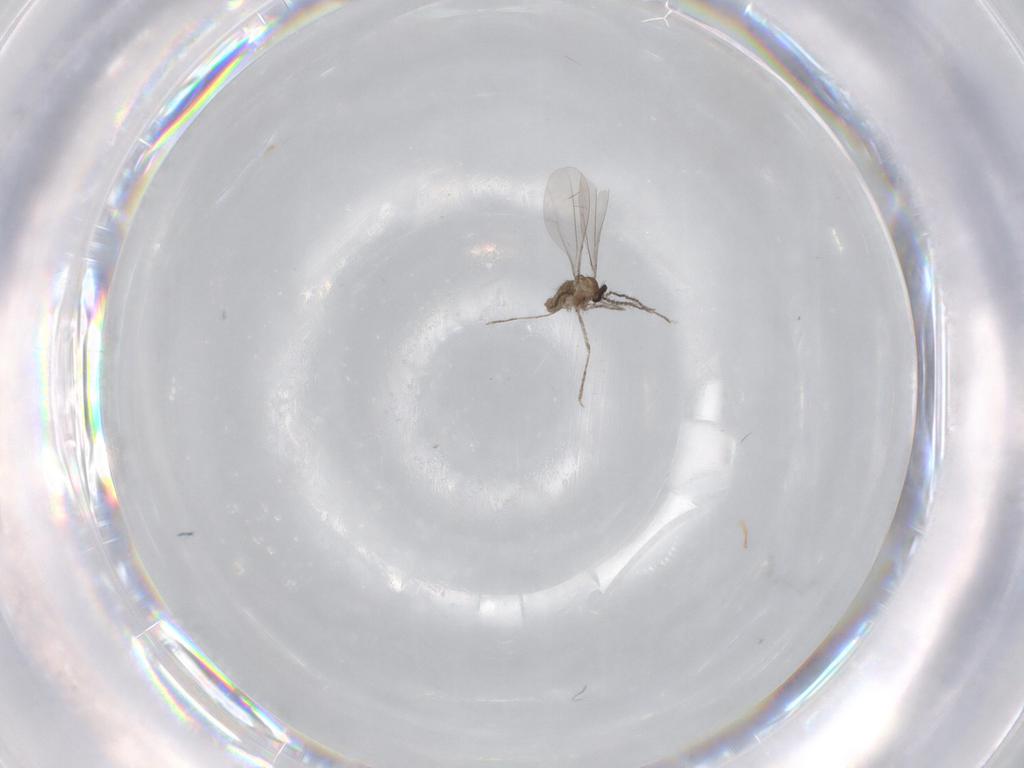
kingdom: Animalia
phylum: Arthropoda
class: Insecta
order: Diptera
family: Cecidomyiidae
